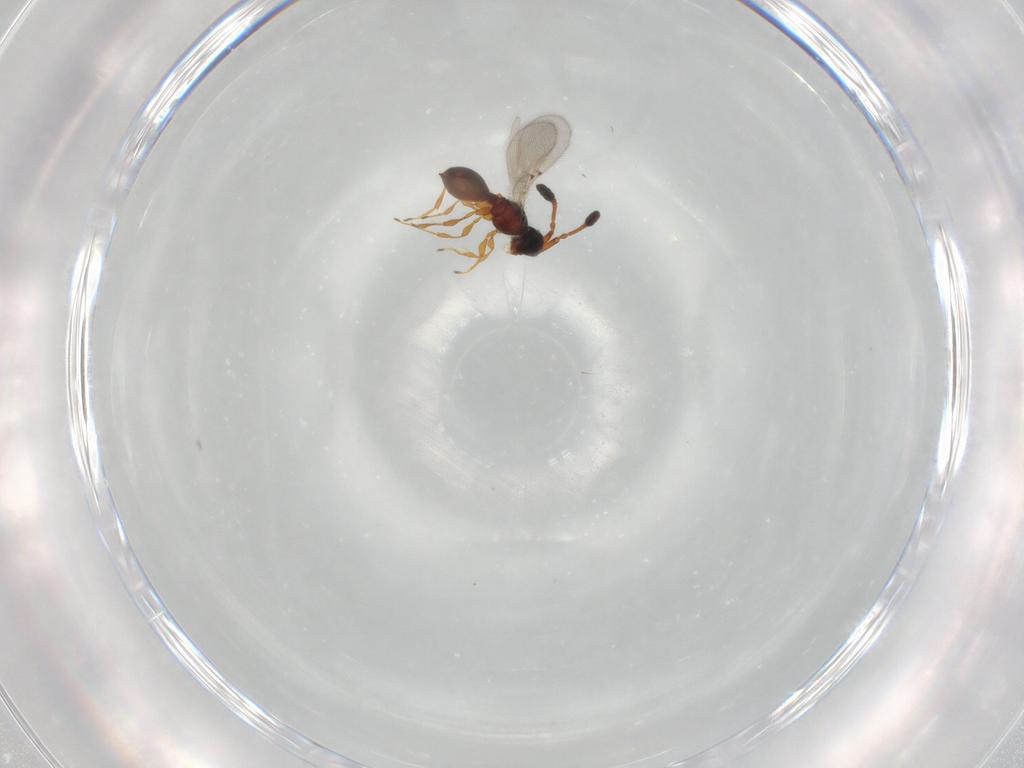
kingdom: Animalia
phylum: Arthropoda
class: Insecta
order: Hymenoptera
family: Diapriidae
